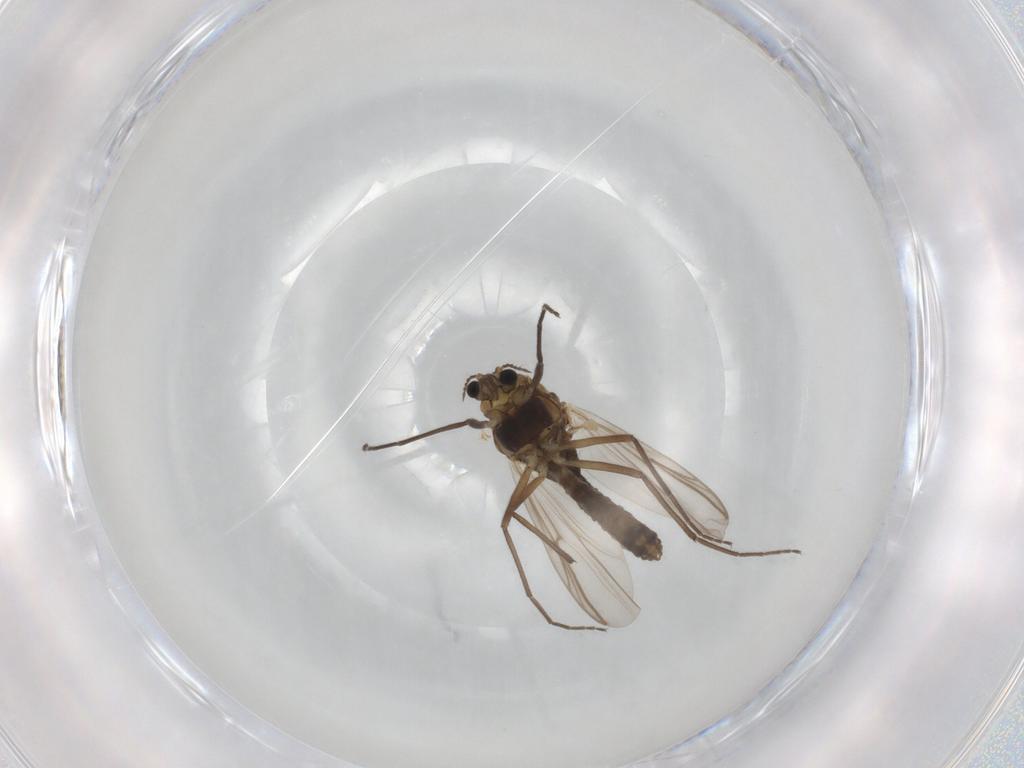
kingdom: Animalia
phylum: Arthropoda
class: Insecta
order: Diptera
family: Chironomidae
